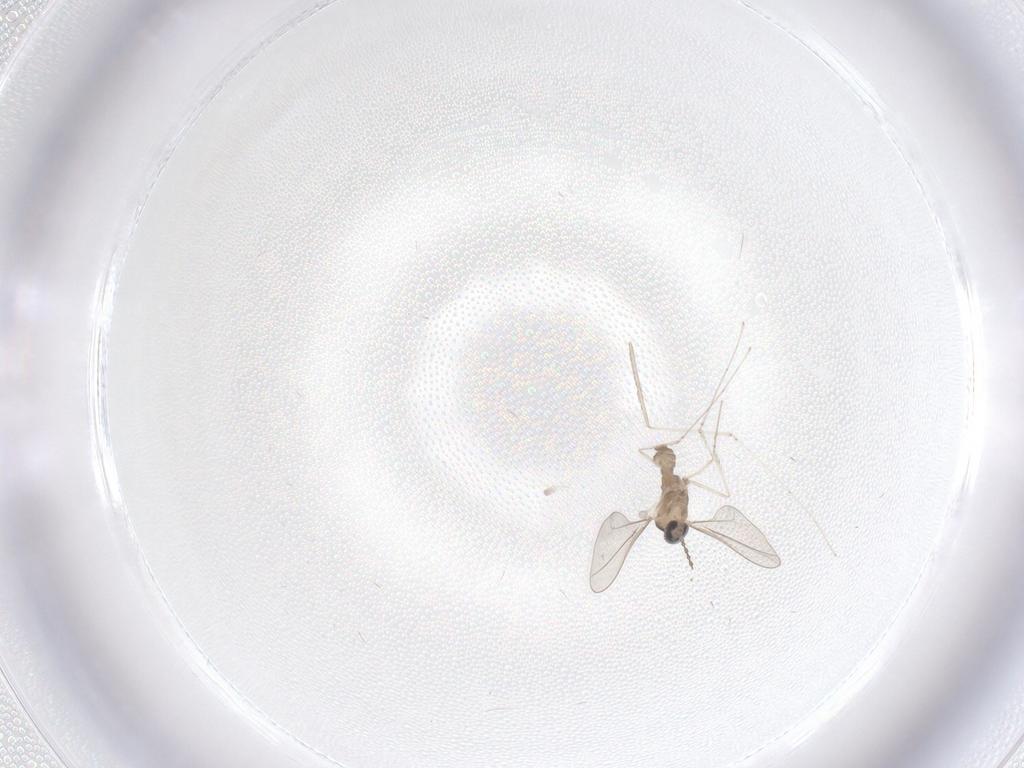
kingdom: Animalia
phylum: Arthropoda
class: Insecta
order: Diptera
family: Cecidomyiidae
